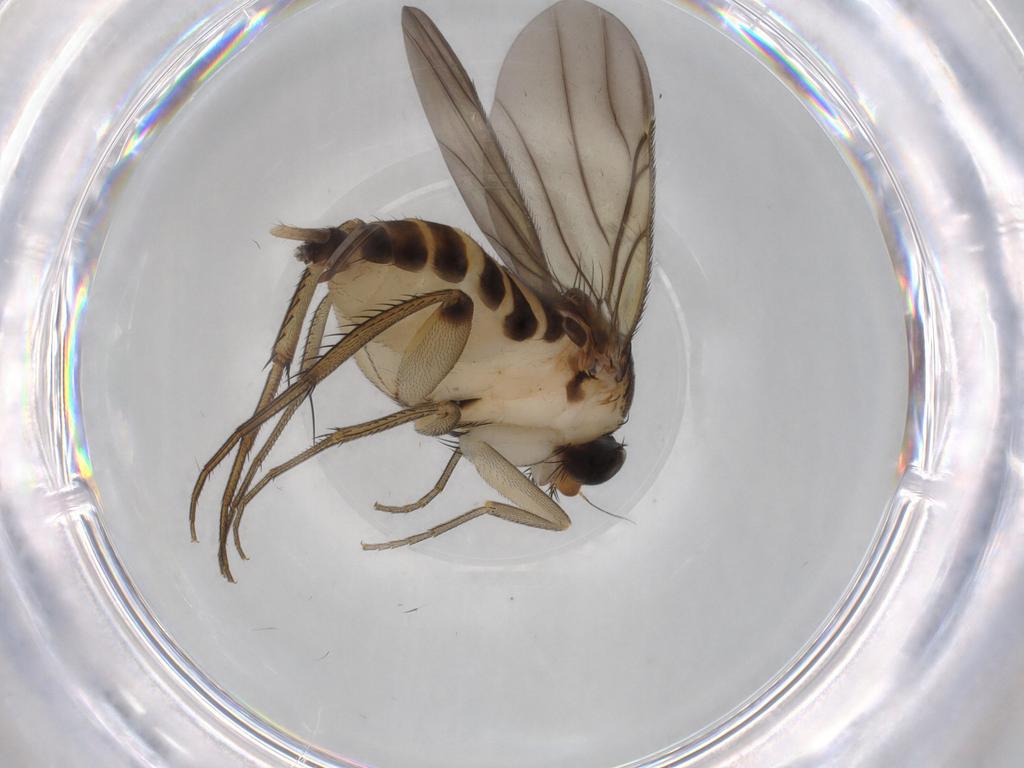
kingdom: Animalia
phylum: Arthropoda
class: Insecta
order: Diptera
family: Phoridae
